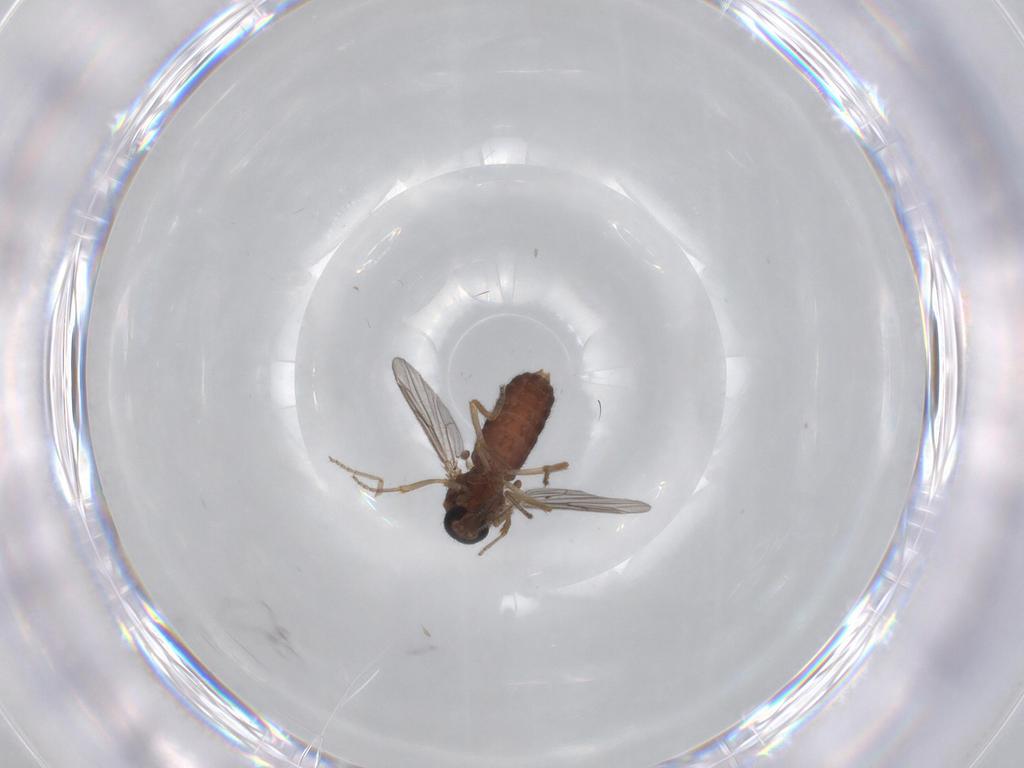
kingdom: Animalia
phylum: Arthropoda
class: Insecta
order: Diptera
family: Ceratopogonidae
